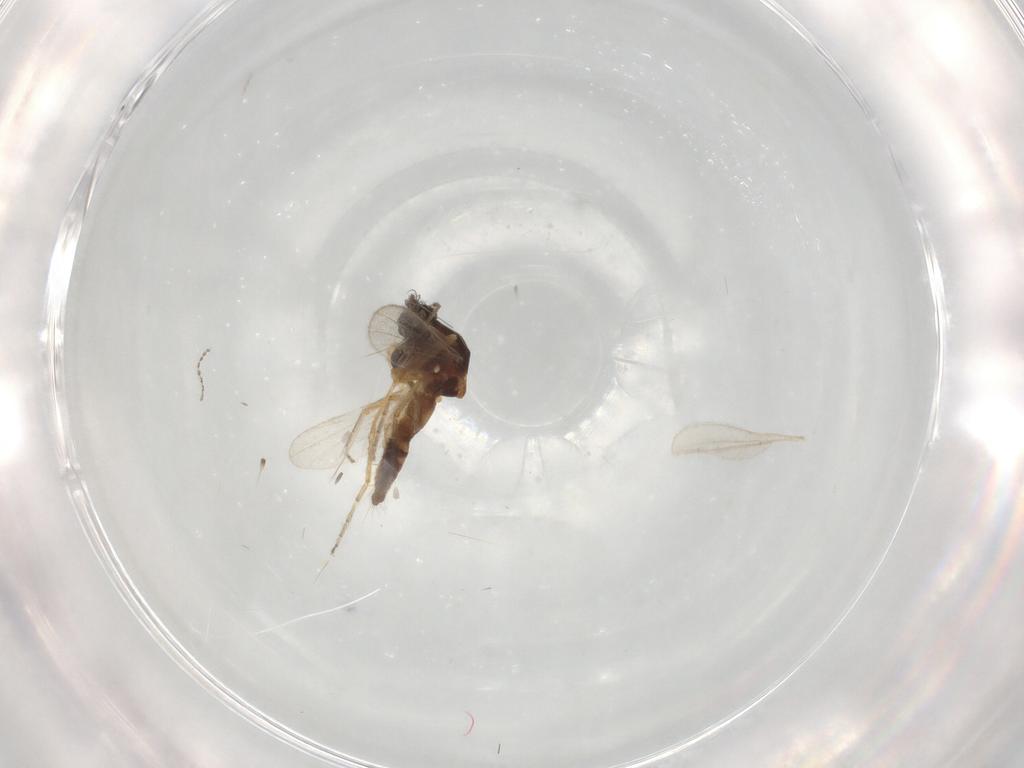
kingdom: Animalia
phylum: Arthropoda
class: Insecta
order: Diptera
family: Ceratopogonidae
